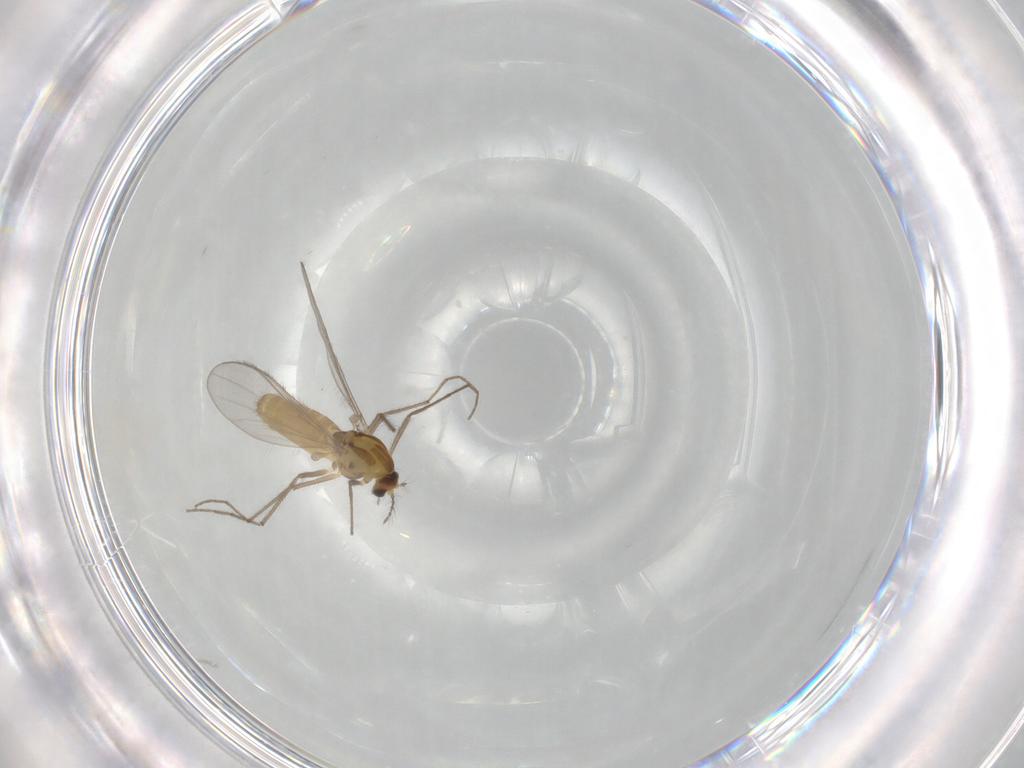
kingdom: Animalia
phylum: Arthropoda
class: Insecta
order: Diptera
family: Chironomidae
